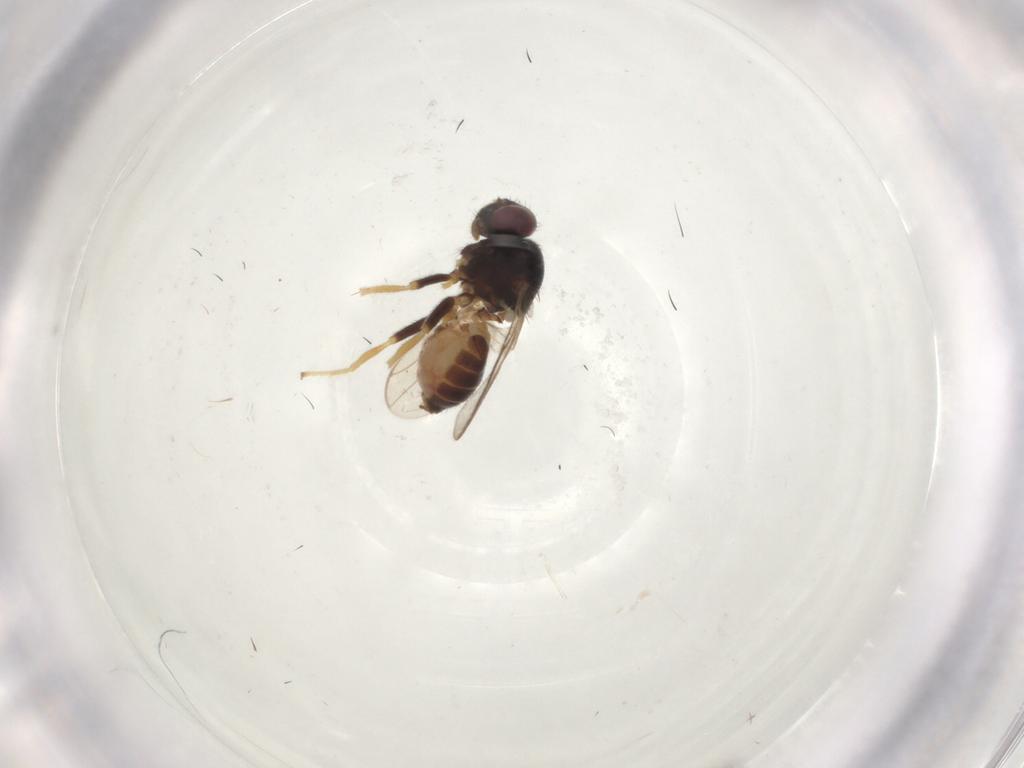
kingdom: Animalia
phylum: Arthropoda
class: Insecta
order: Diptera
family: Chloropidae
